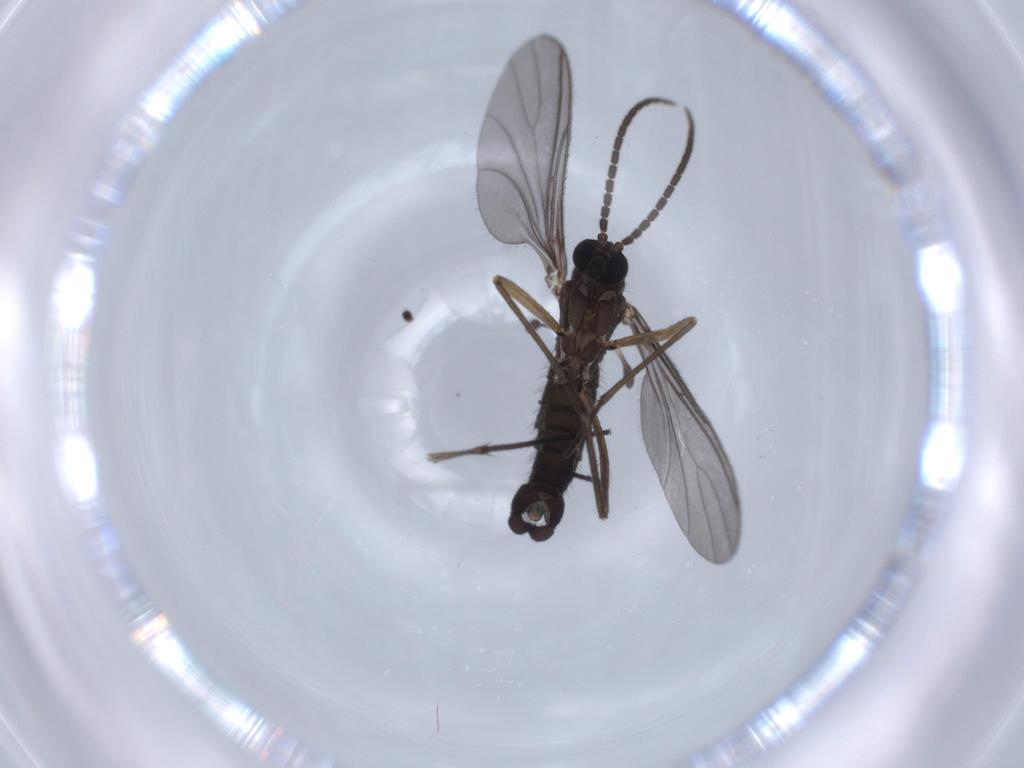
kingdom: Animalia
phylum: Arthropoda
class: Insecta
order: Diptera
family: Sciaridae
